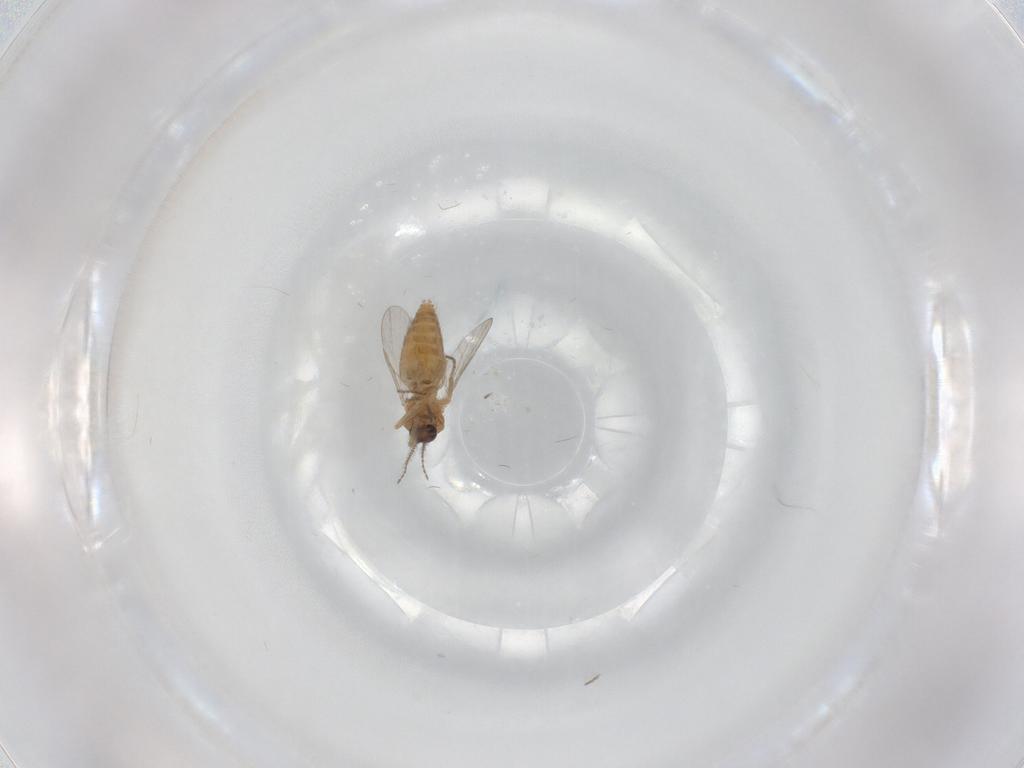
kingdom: Animalia
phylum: Arthropoda
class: Insecta
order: Diptera
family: Ceratopogonidae
